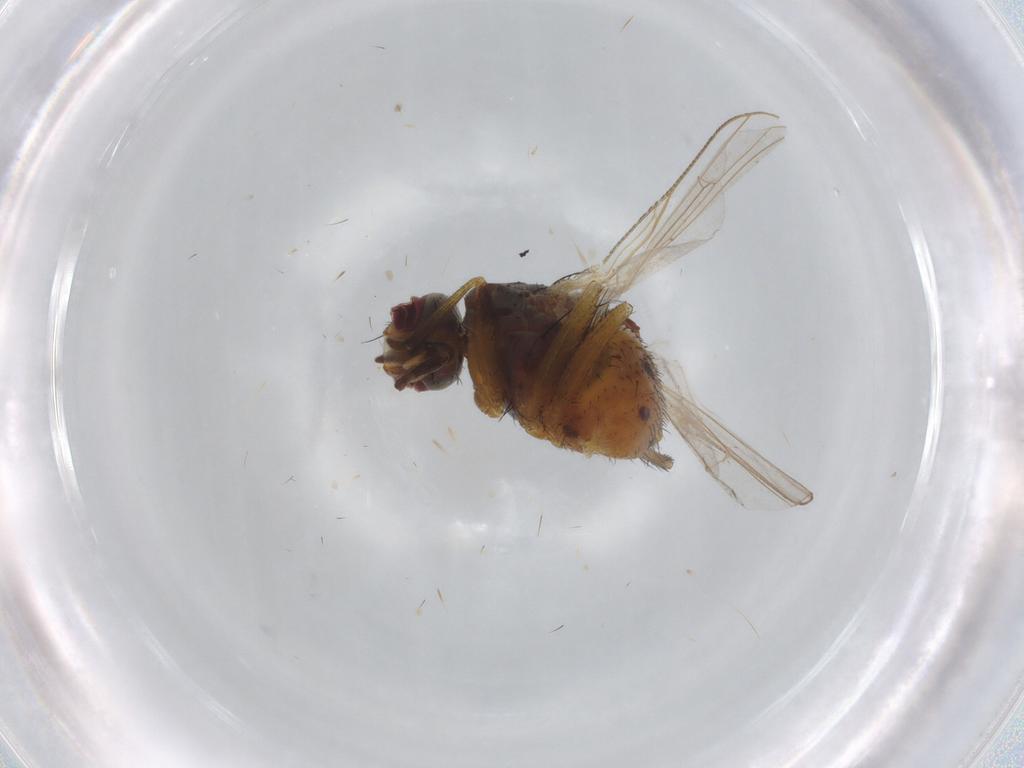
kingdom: Animalia
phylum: Arthropoda
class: Insecta
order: Diptera
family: Muscidae
